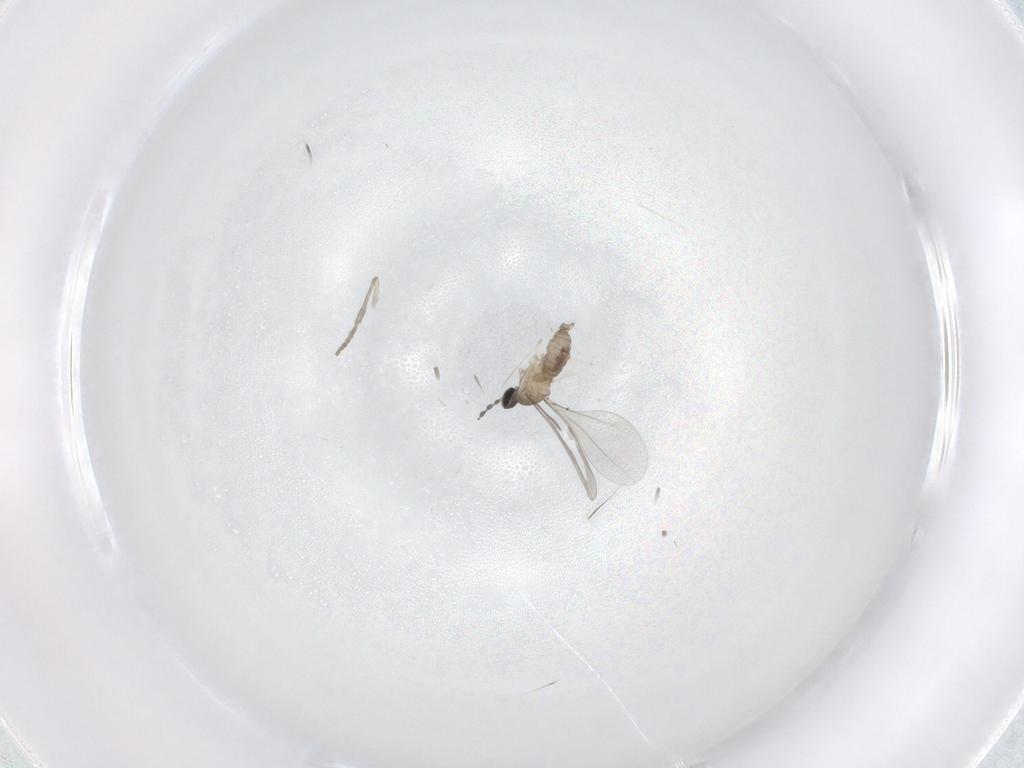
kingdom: Animalia
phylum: Arthropoda
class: Insecta
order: Diptera
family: Cecidomyiidae
